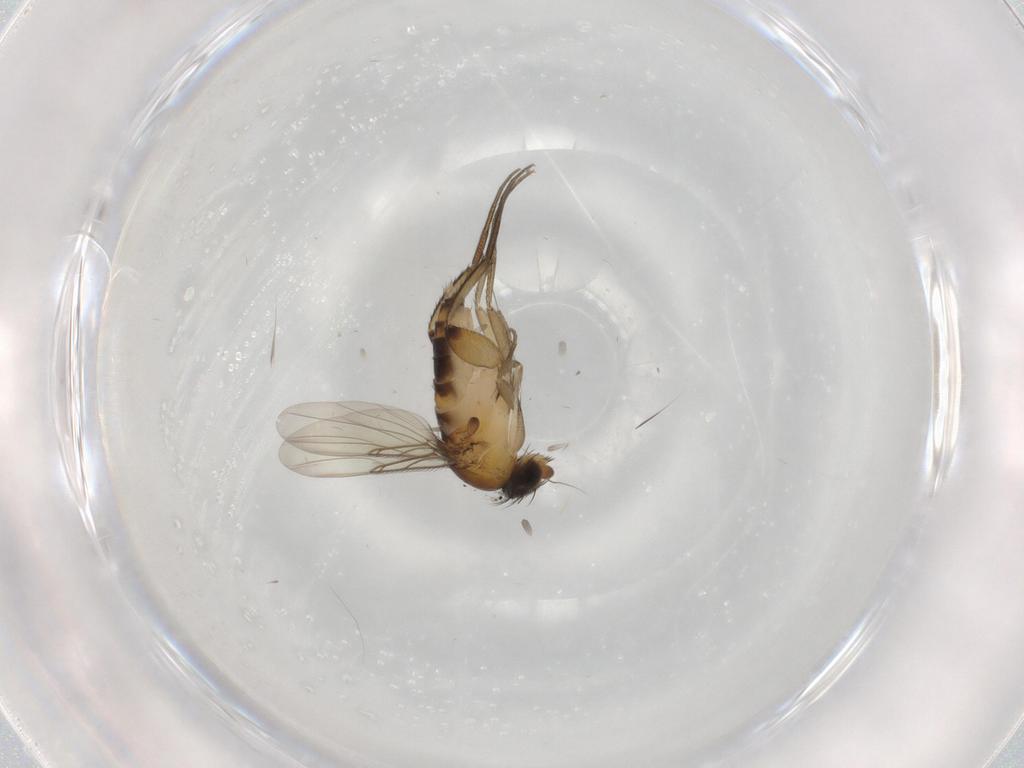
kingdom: Animalia
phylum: Arthropoda
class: Insecta
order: Diptera
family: Phoridae
